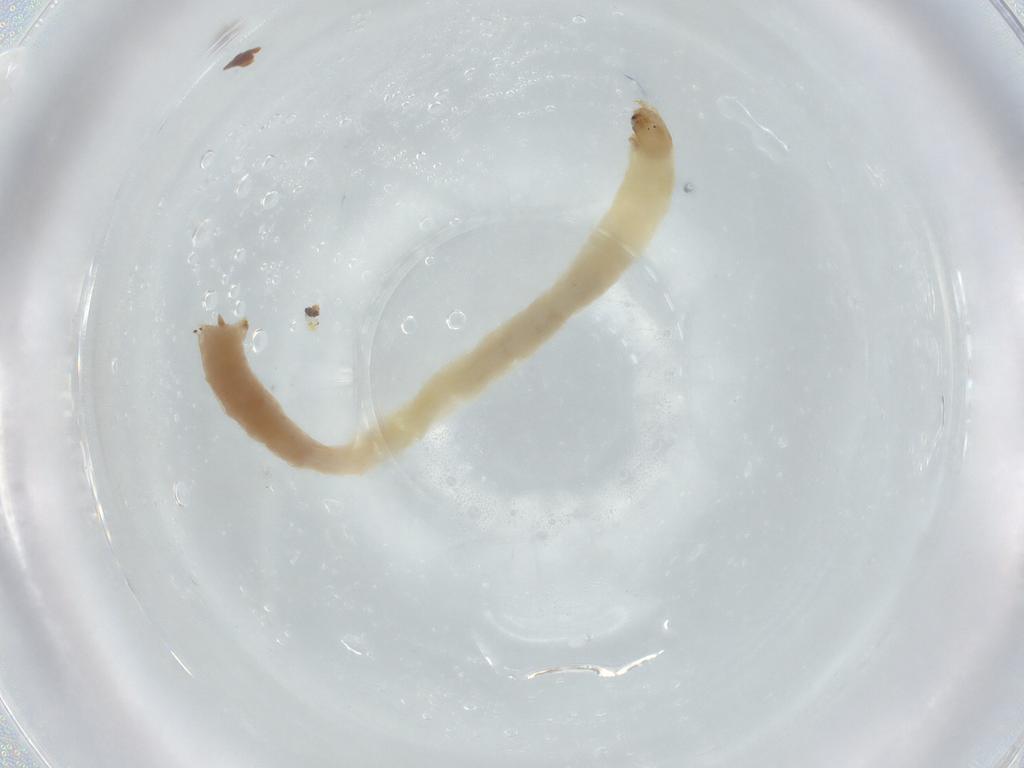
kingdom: Animalia
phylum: Arthropoda
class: Insecta
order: Diptera
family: Chironomidae
